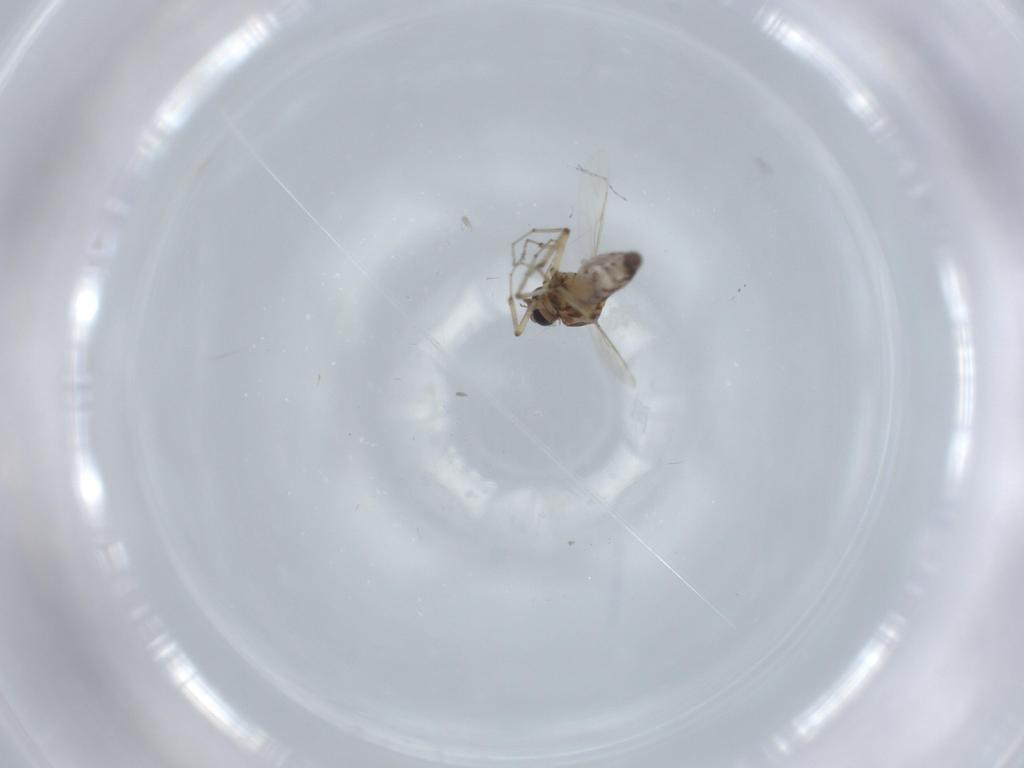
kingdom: Animalia
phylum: Arthropoda
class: Insecta
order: Diptera
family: Ceratopogonidae
